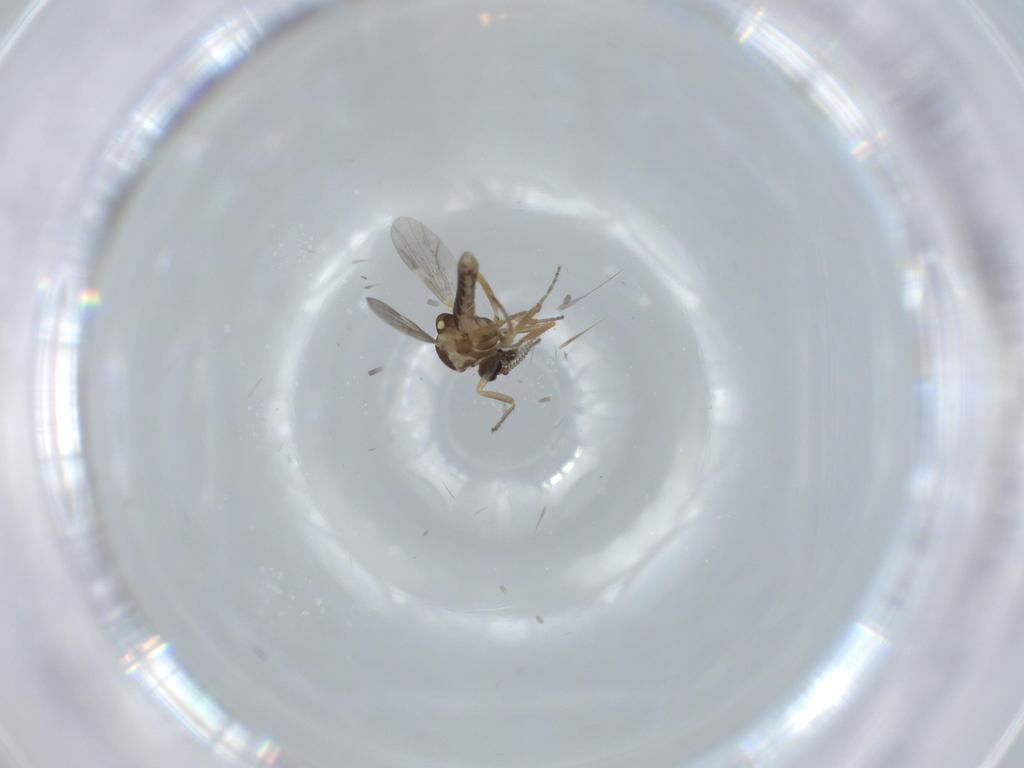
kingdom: Animalia
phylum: Arthropoda
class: Insecta
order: Diptera
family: Ceratopogonidae
